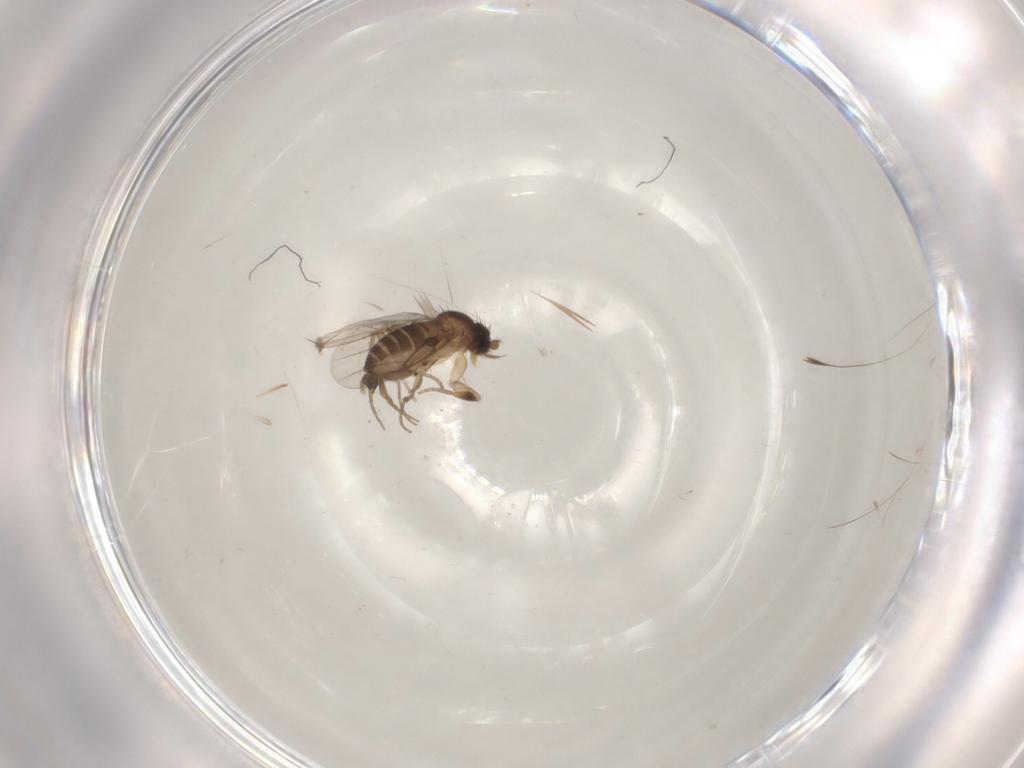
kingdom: Animalia
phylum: Arthropoda
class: Insecta
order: Diptera
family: Phoridae
